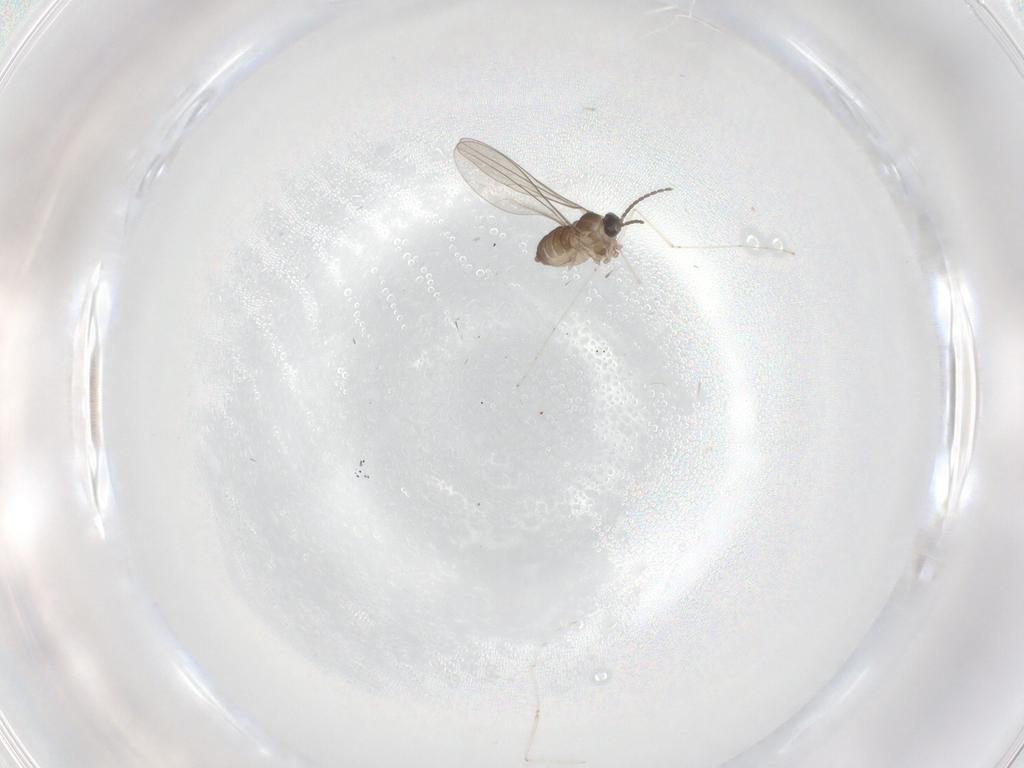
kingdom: Animalia
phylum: Arthropoda
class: Insecta
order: Diptera
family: Cecidomyiidae
